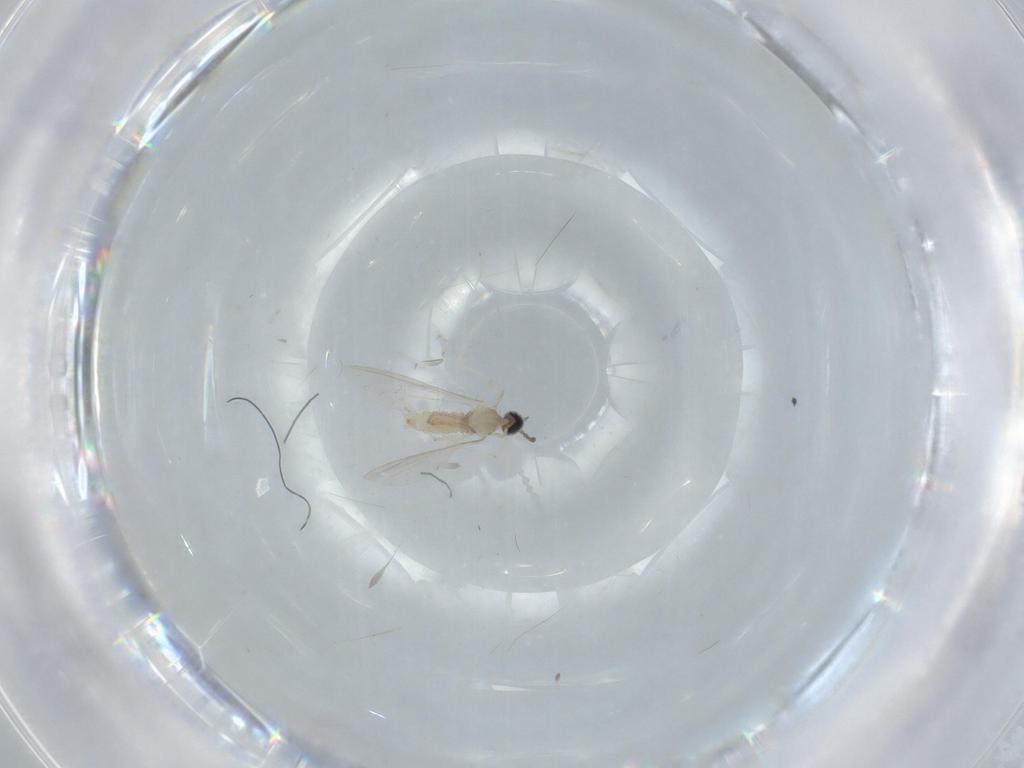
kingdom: Animalia
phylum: Arthropoda
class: Insecta
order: Diptera
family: Cecidomyiidae
